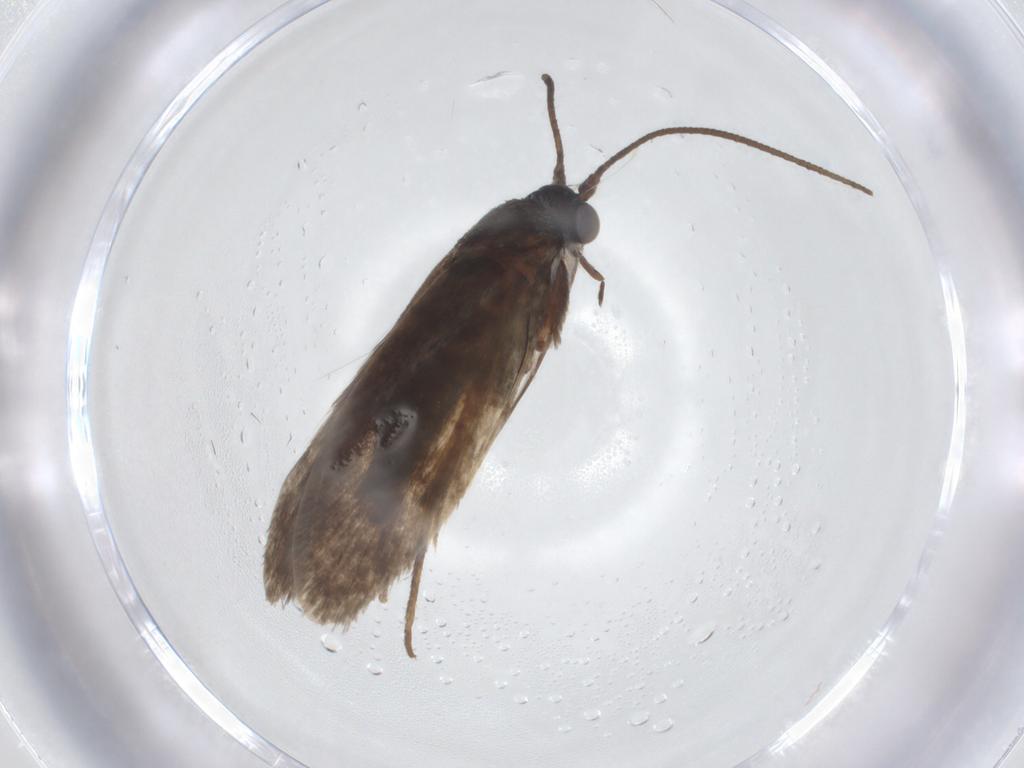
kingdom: Animalia
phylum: Arthropoda
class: Insecta
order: Lepidoptera
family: Adelidae
